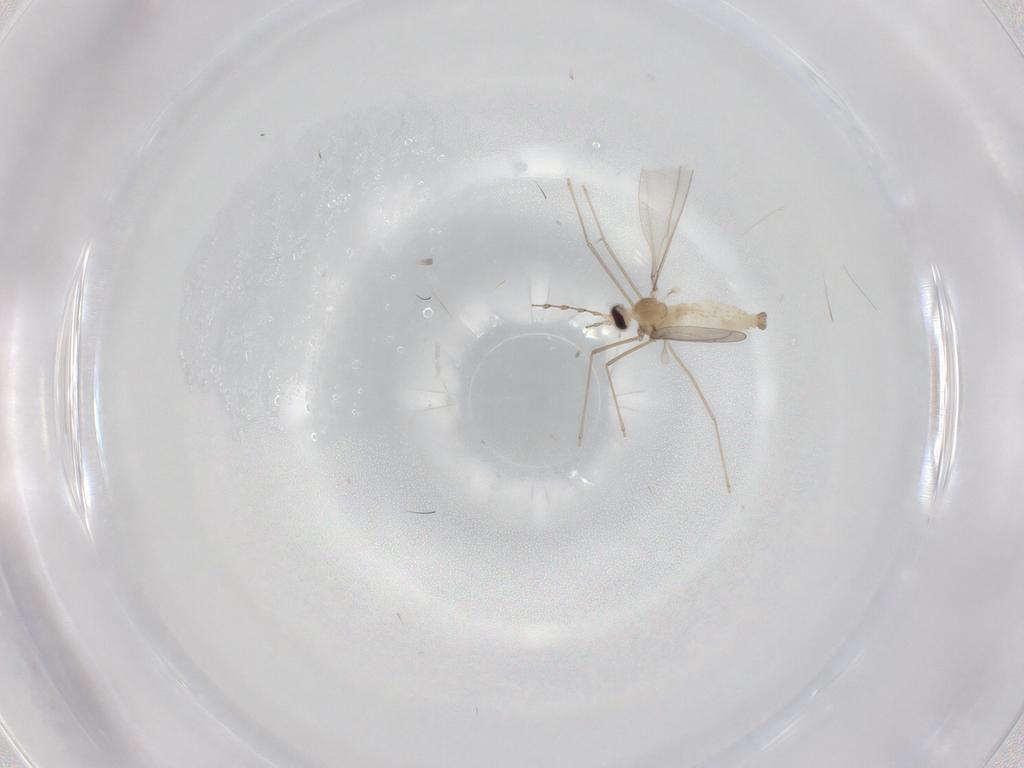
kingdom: Animalia
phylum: Arthropoda
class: Insecta
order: Diptera
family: Cecidomyiidae
